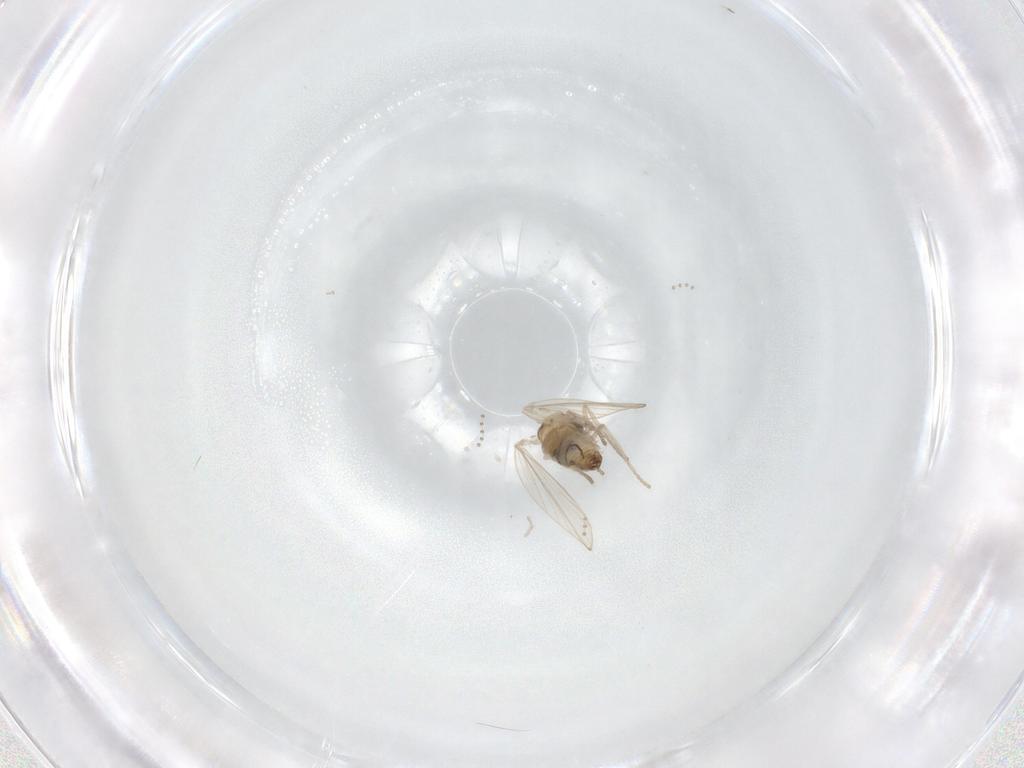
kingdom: Animalia
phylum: Arthropoda
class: Insecta
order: Diptera
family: Psychodidae
